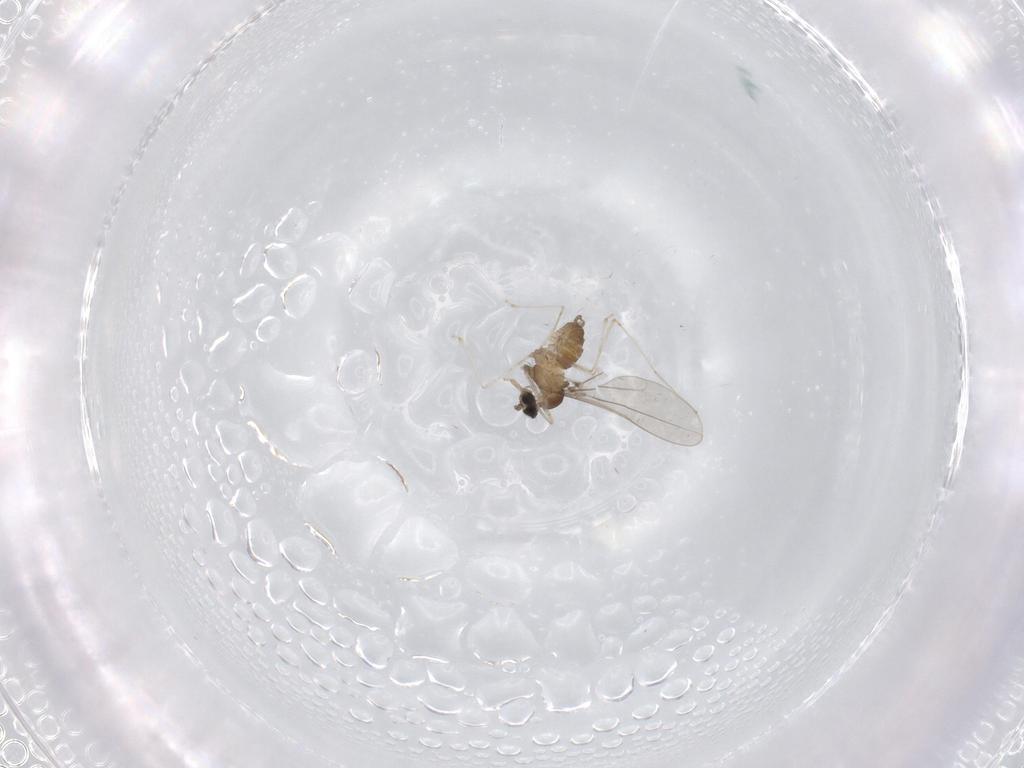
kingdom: Animalia
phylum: Arthropoda
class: Insecta
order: Diptera
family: Cecidomyiidae
